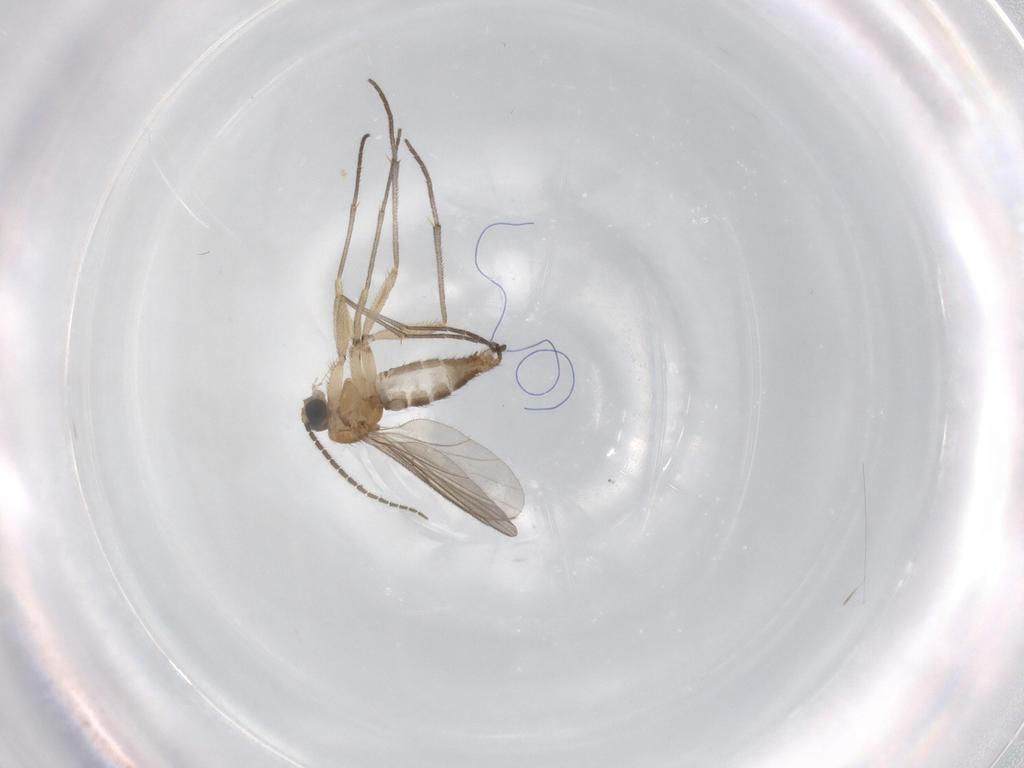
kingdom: Animalia
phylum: Arthropoda
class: Insecta
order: Diptera
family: Sciaridae
